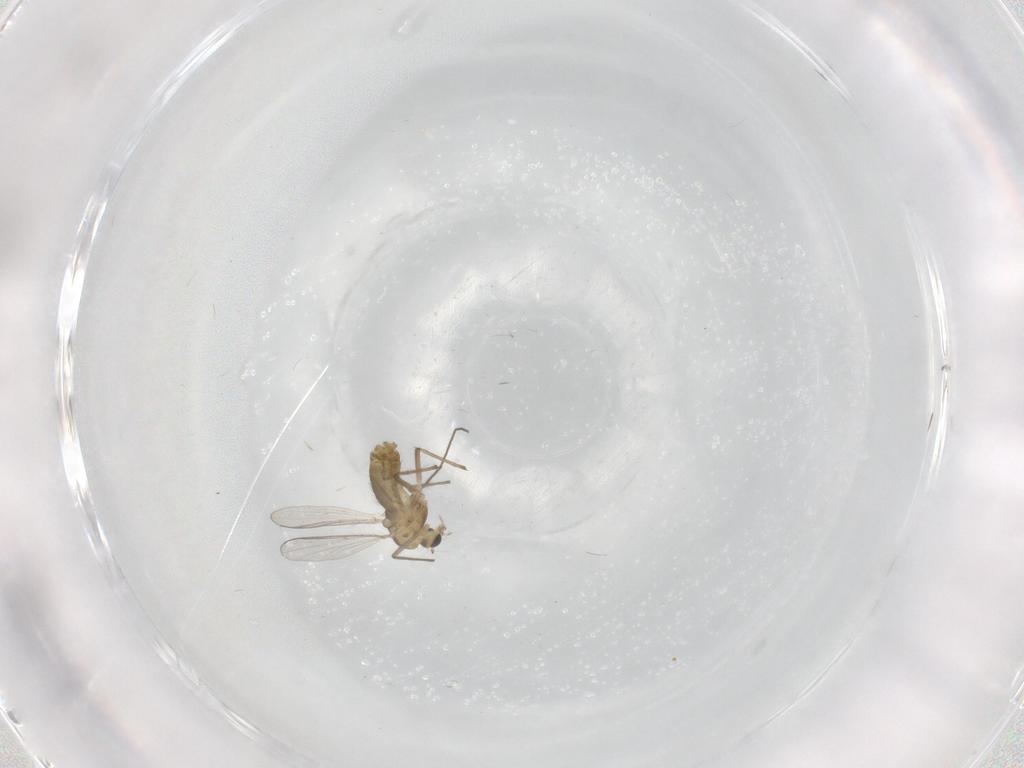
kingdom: Animalia
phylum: Arthropoda
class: Insecta
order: Diptera
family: Chironomidae
